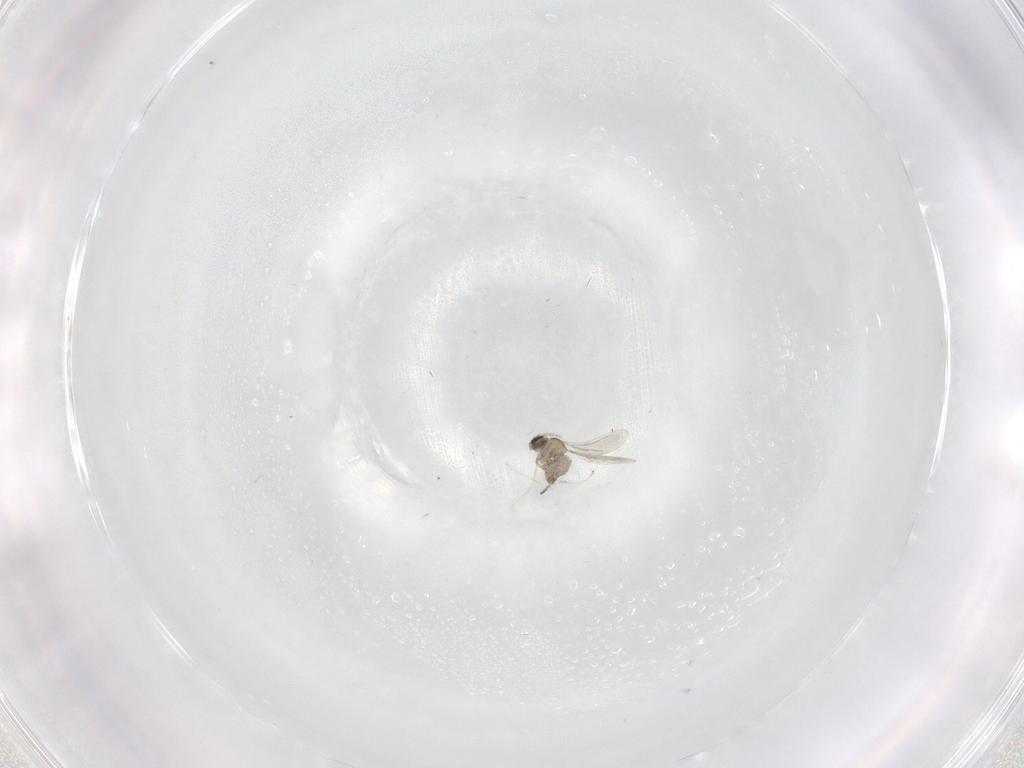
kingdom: Animalia
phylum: Arthropoda
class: Insecta
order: Diptera
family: Cecidomyiidae
